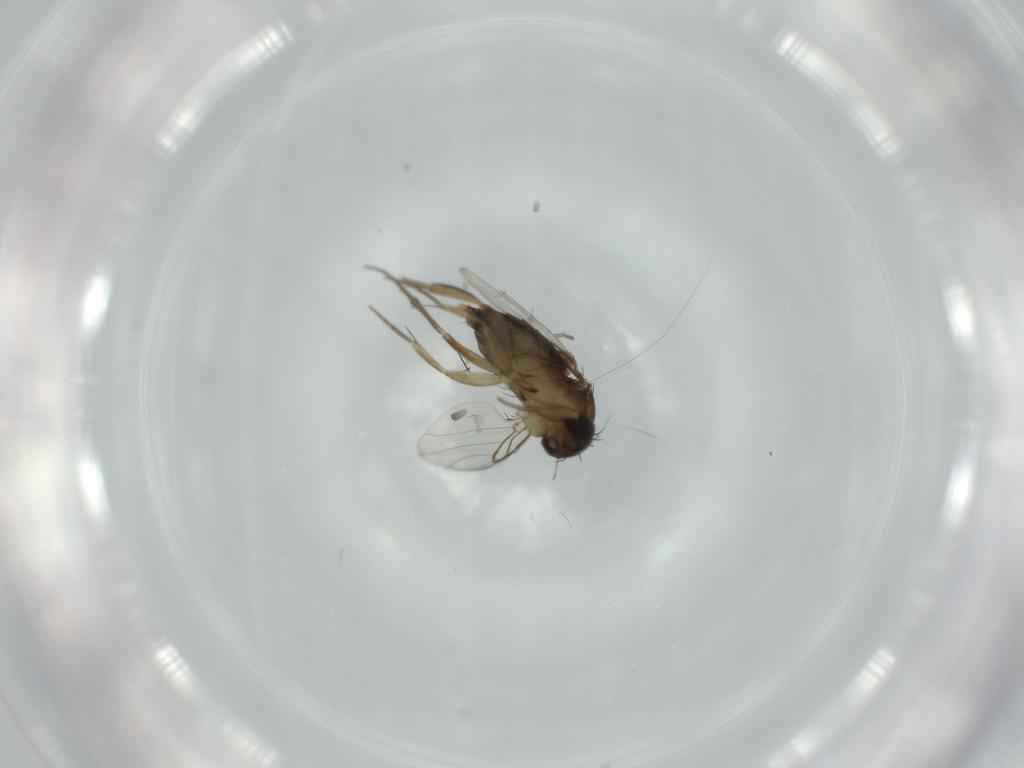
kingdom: Animalia
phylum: Arthropoda
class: Insecta
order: Diptera
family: Phoridae
